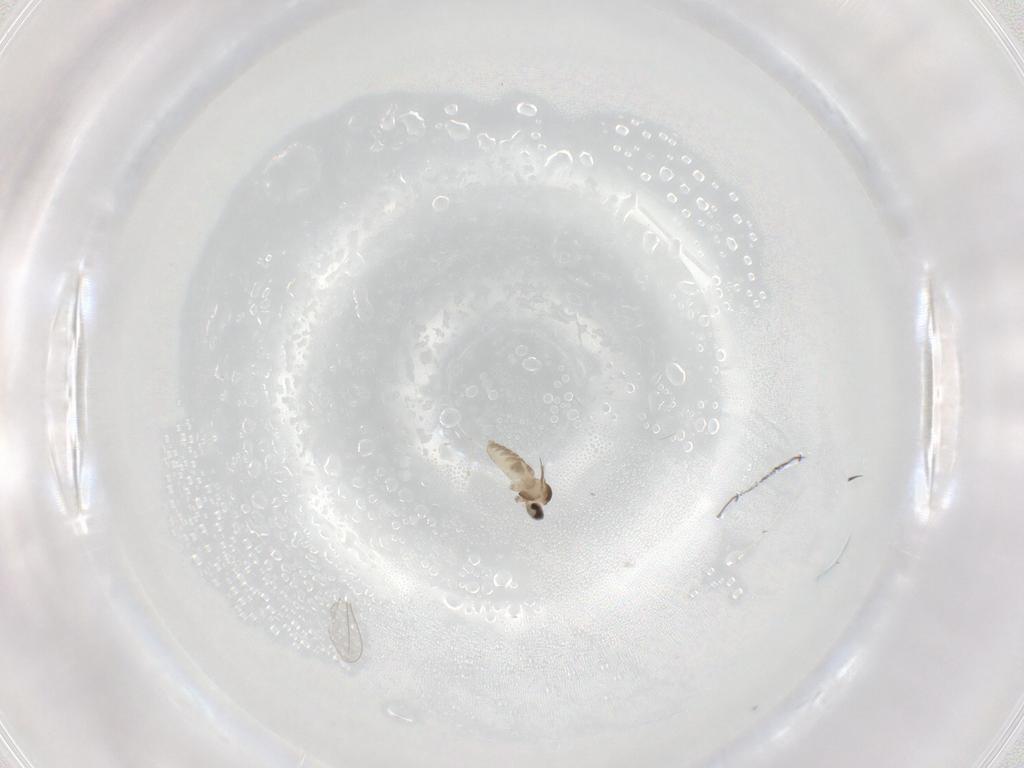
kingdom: Animalia
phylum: Arthropoda
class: Insecta
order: Diptera
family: Cecidomyiidae
